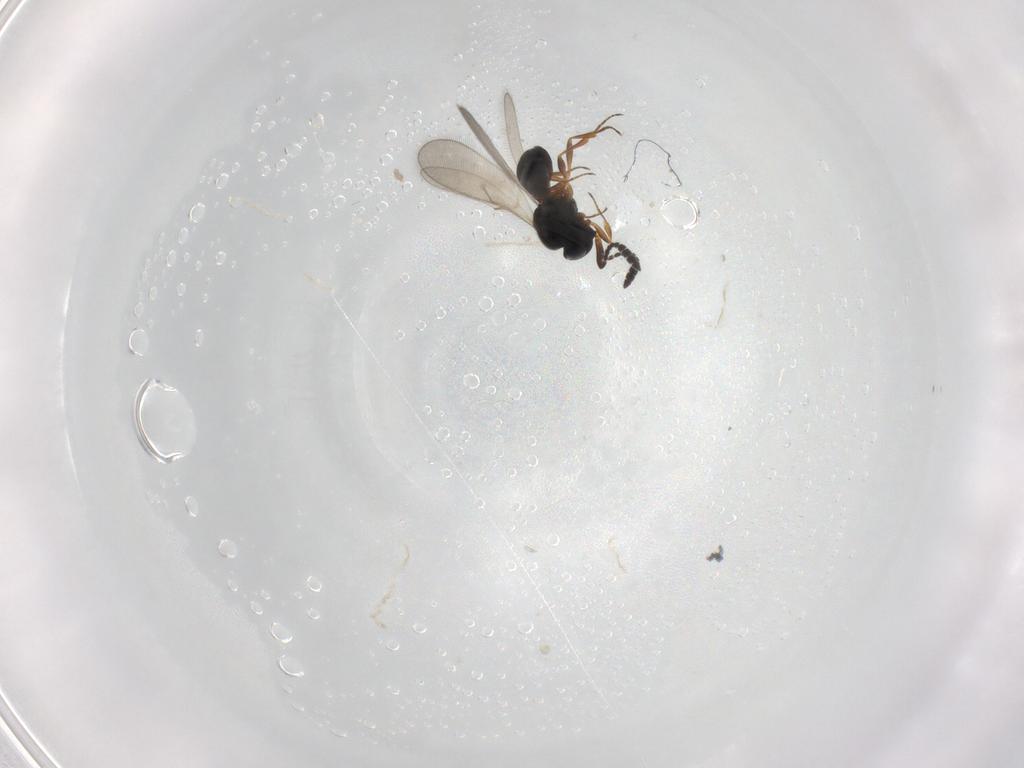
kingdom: Animalia
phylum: Arthropoda
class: Insecta
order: Hymenoptera
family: Scelionidae
